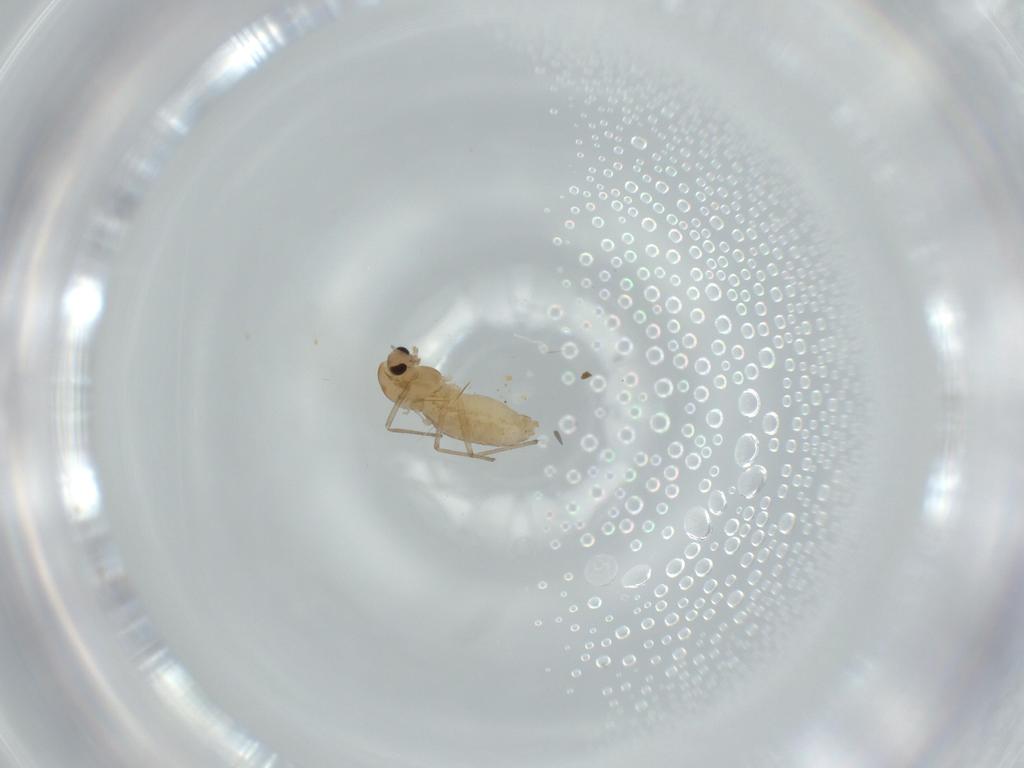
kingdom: Animalia
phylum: Arthropoda
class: Insecta
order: Diptera
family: Chironomidae
